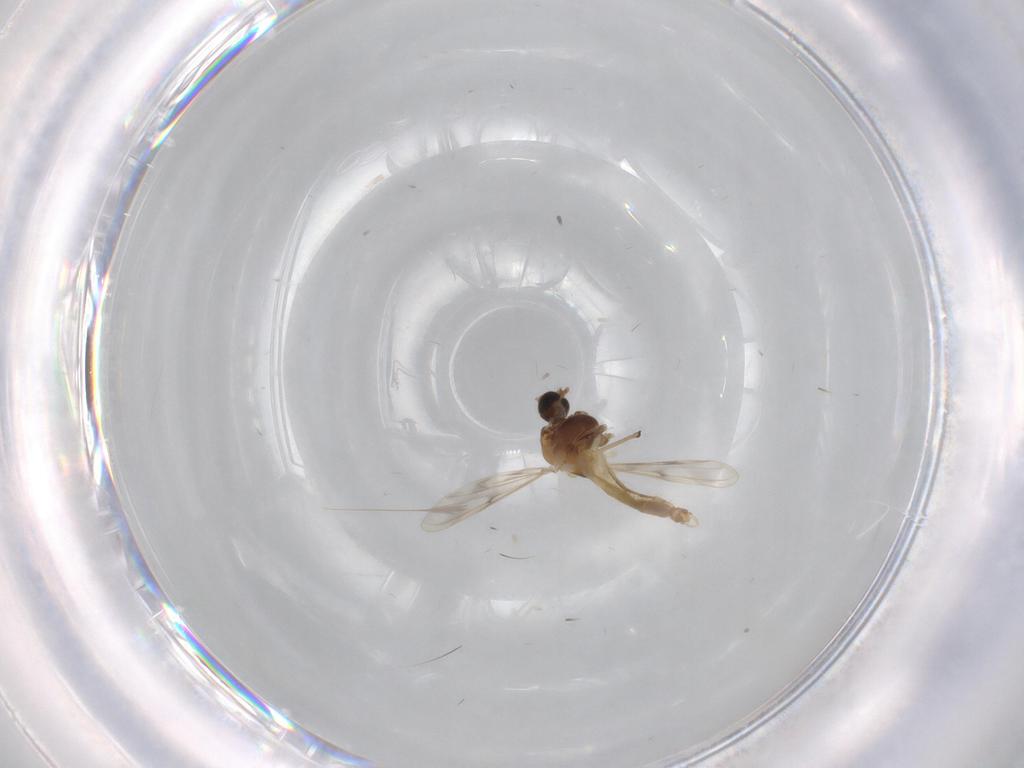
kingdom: Animalia
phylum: Arthropoda
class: Insecta
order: Diptera
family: Chironomidae
